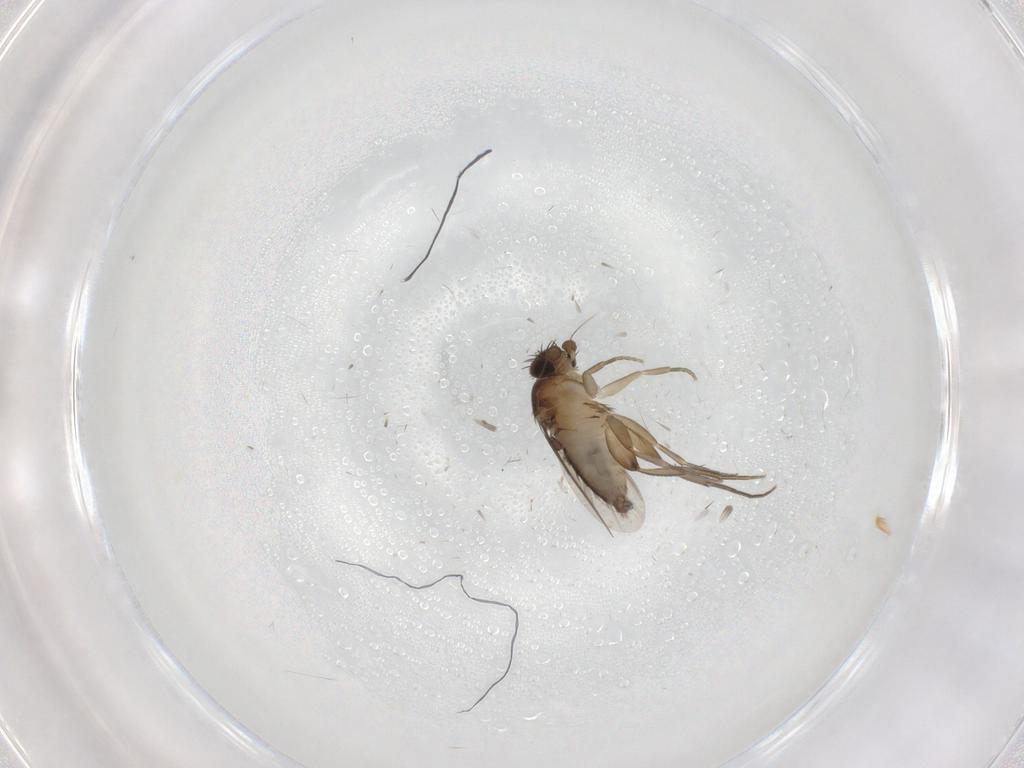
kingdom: Animalia
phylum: Arthropoda
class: Insecta
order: Diptera
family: Phoridae
